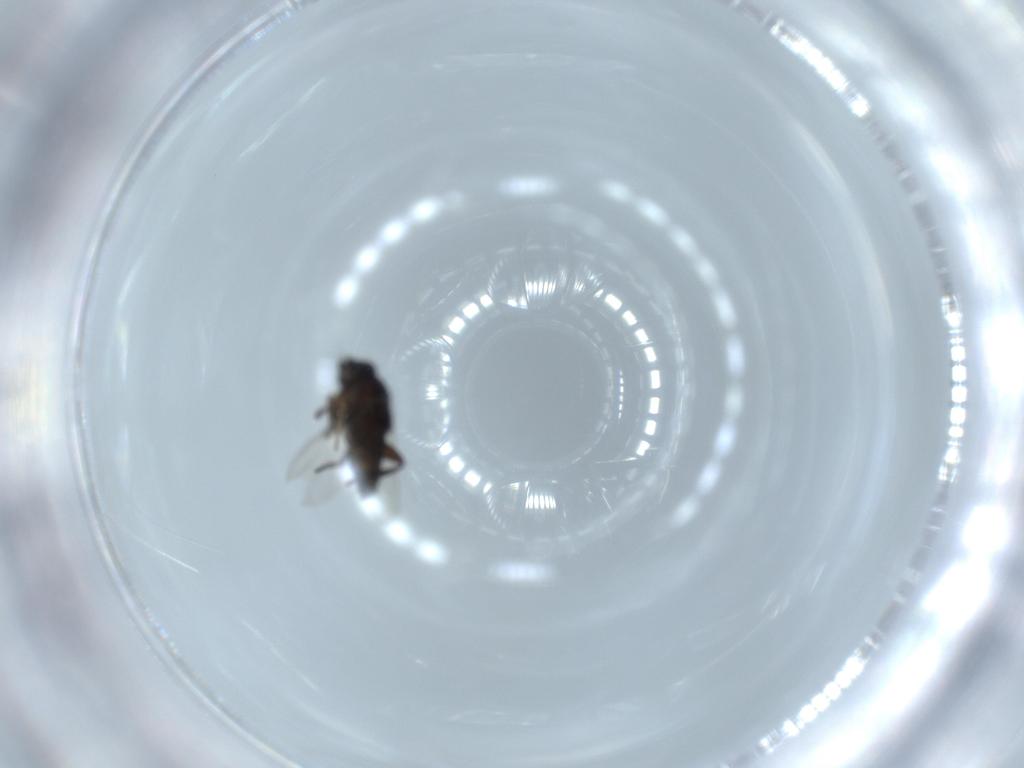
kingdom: Animalia
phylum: Arthropoda
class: Insecta
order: Diptera
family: Phoridae
